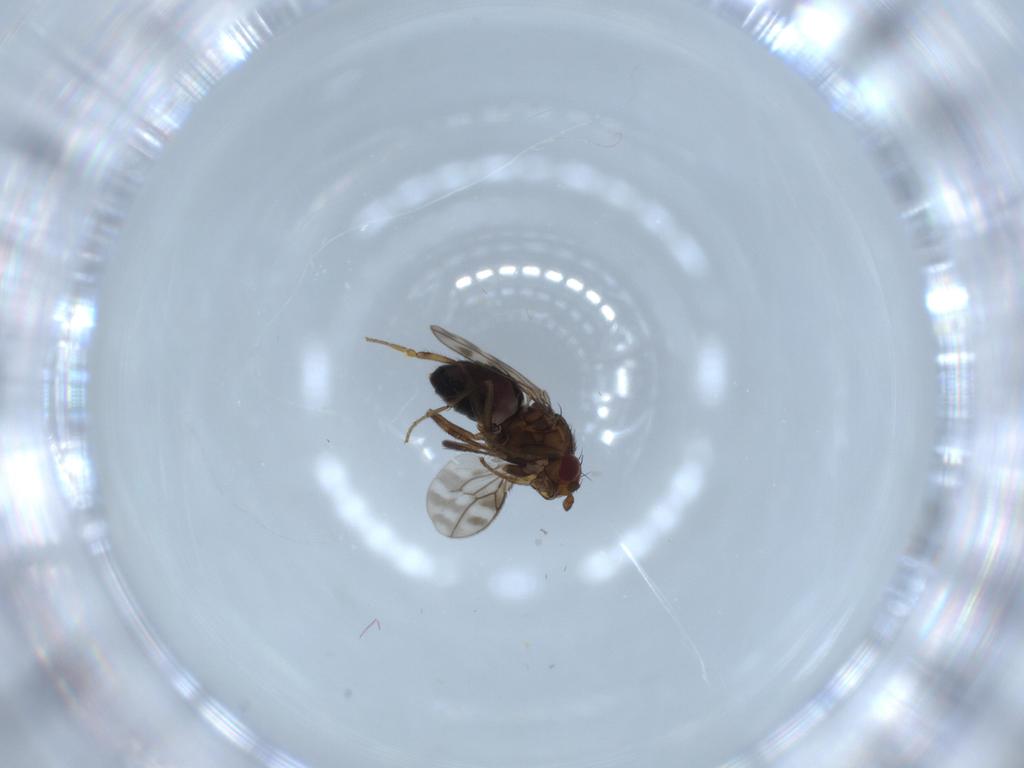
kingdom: Animalia
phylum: Arthropoda
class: Insecta
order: Diptera
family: Sphaeroceridae
